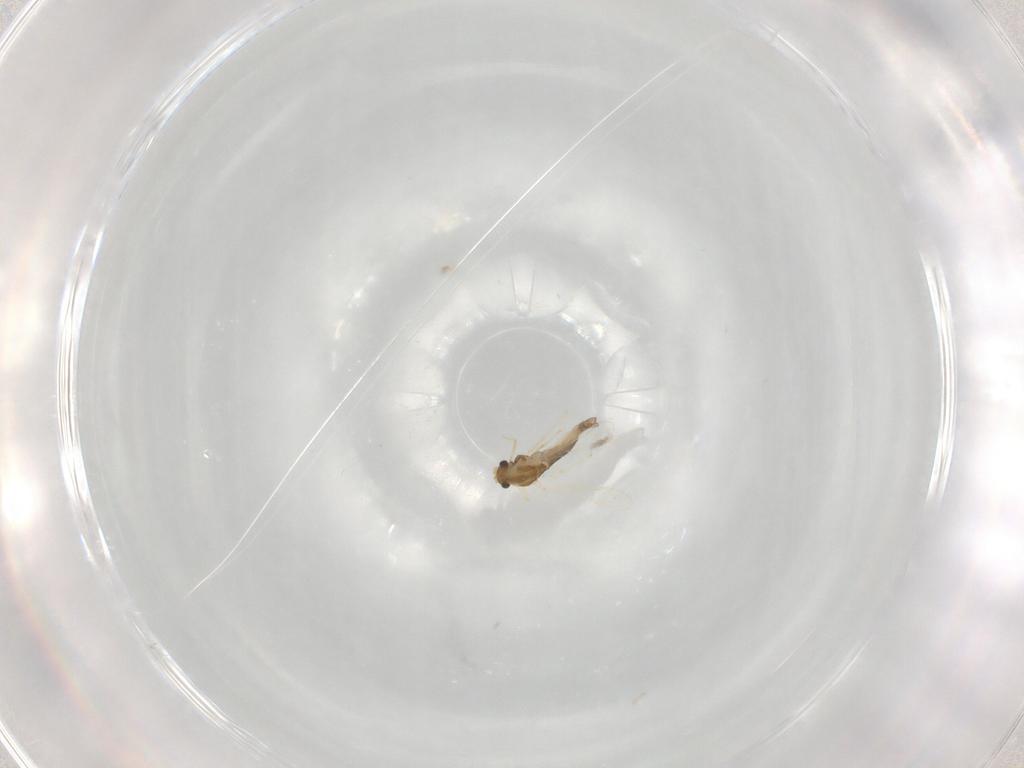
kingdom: Animalia
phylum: Arthropoda
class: Insecta
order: Diptera
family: Chironomidae
